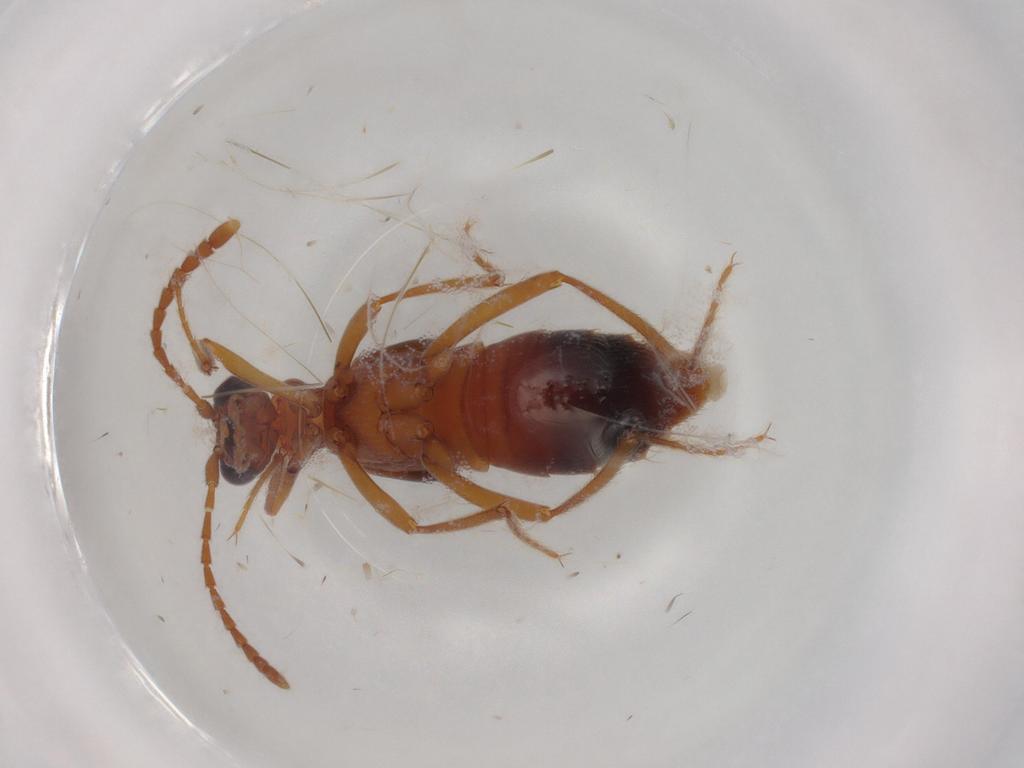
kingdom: Animalia
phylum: Arthropoda
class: Insecta
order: Coleoptera
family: Staphylinidae
